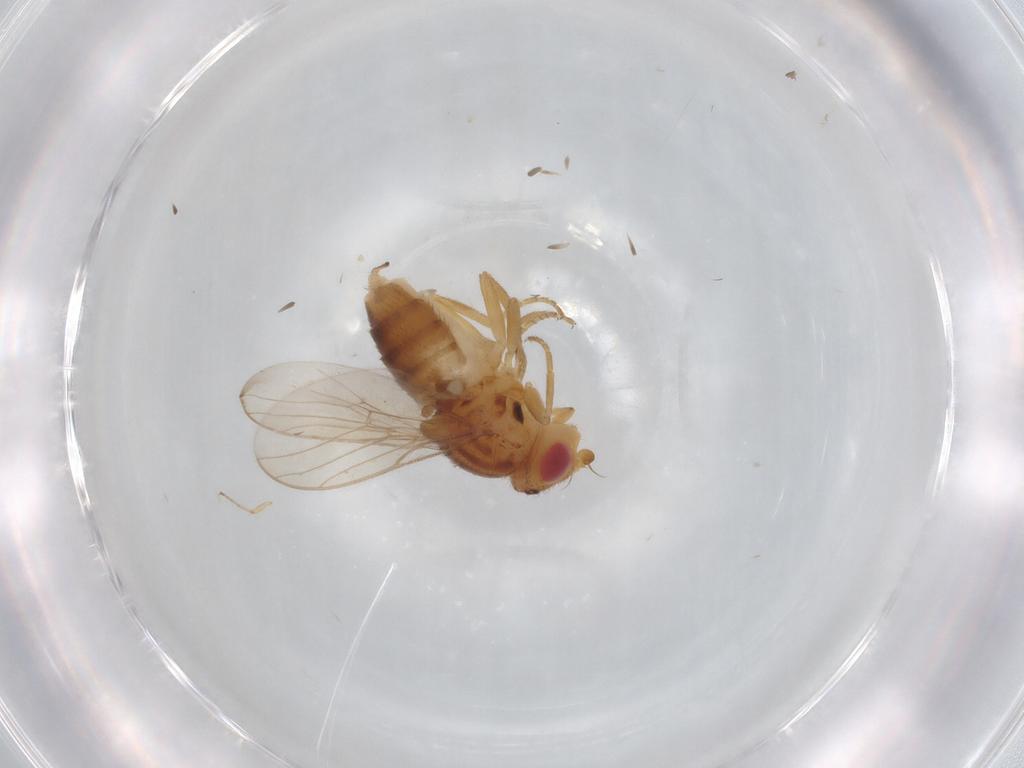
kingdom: Animalia
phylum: Arthropoda
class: Insecta
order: Diptera
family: Chloropidae
